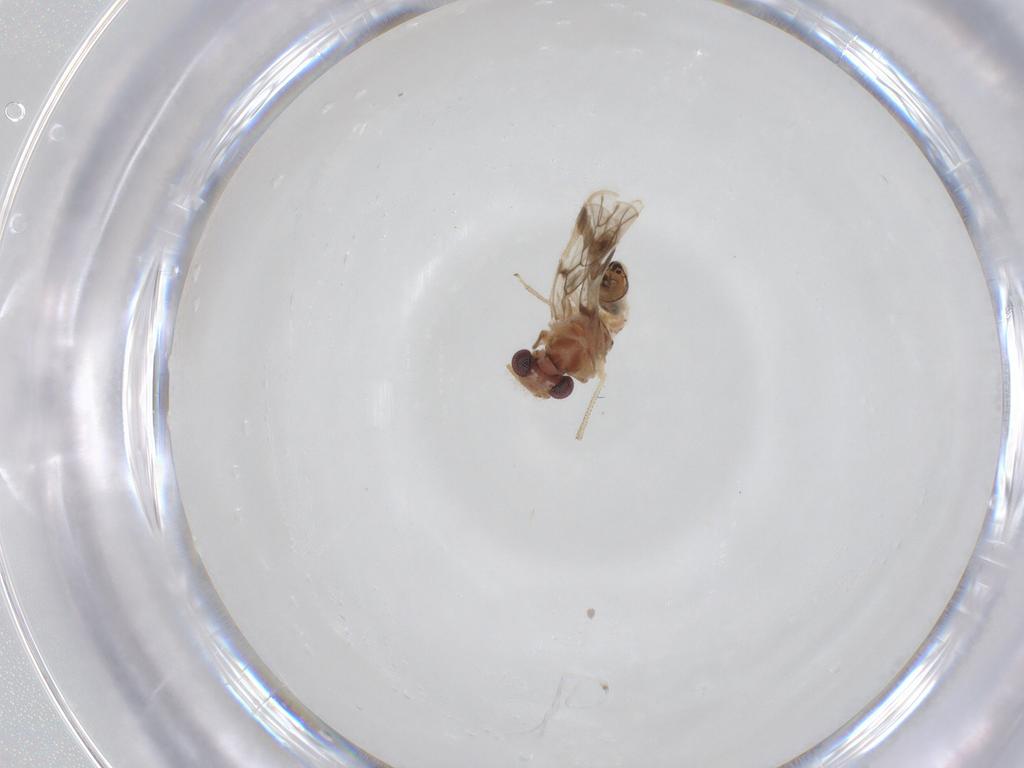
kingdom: Animalia
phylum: Arthropoda
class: Insecta
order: Psocodea
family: Pseudocaeciliidae
